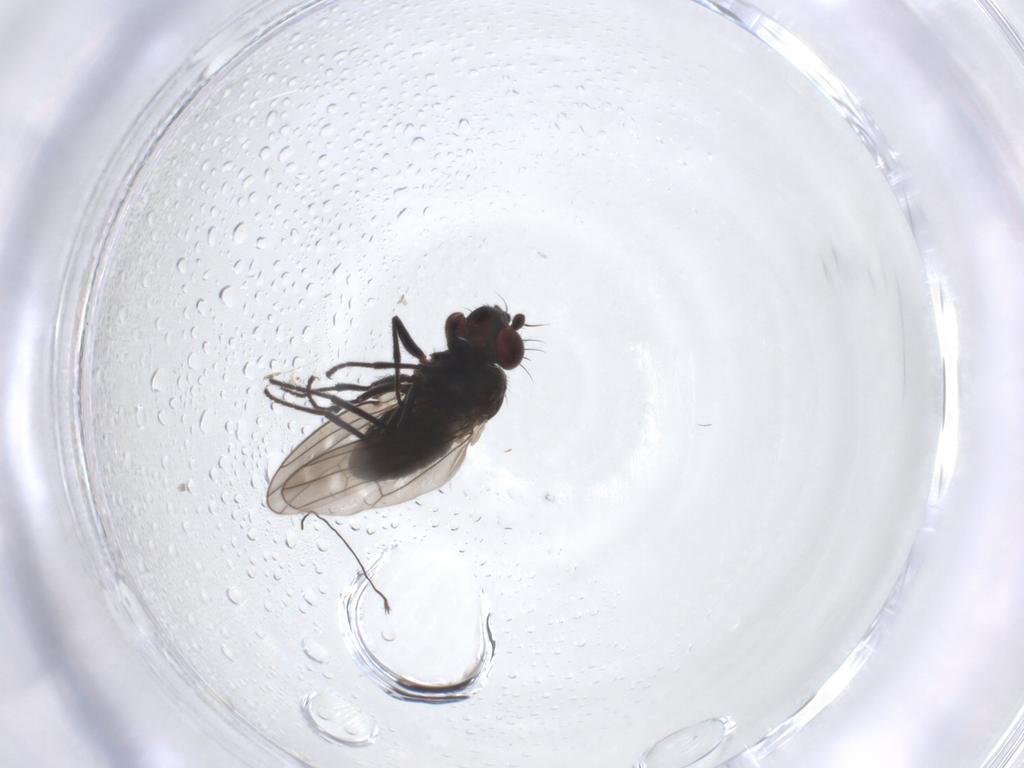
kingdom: Animalia
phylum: Arthropoda
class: Insecta
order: Diptera
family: Ephydridae
